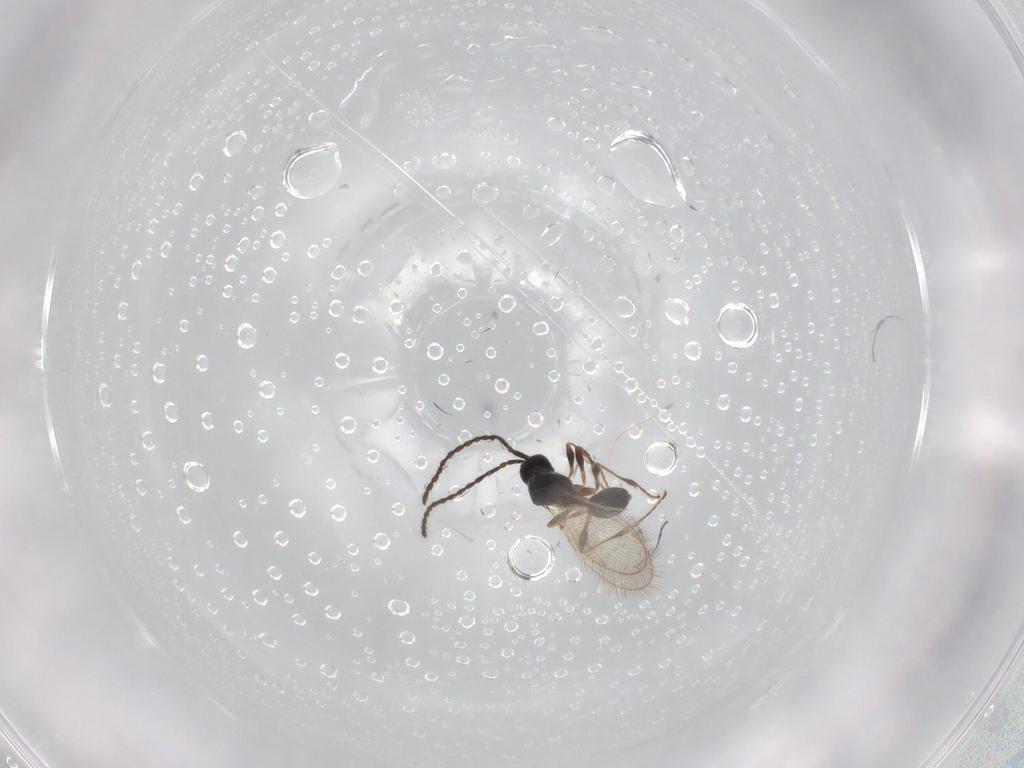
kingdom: Animalia
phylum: Arthropoda
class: Insecta
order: Hymenoptera
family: Diapriidae
